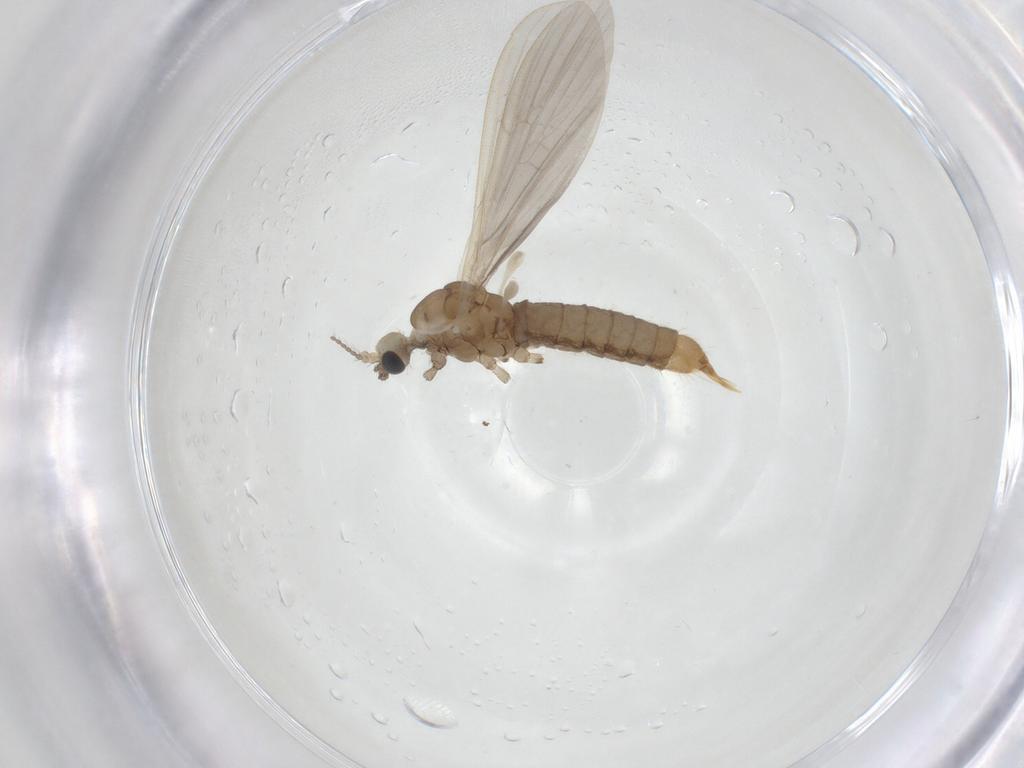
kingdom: Animalia
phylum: Arthropoda
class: Insecta
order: Diptera
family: Limoniidae
